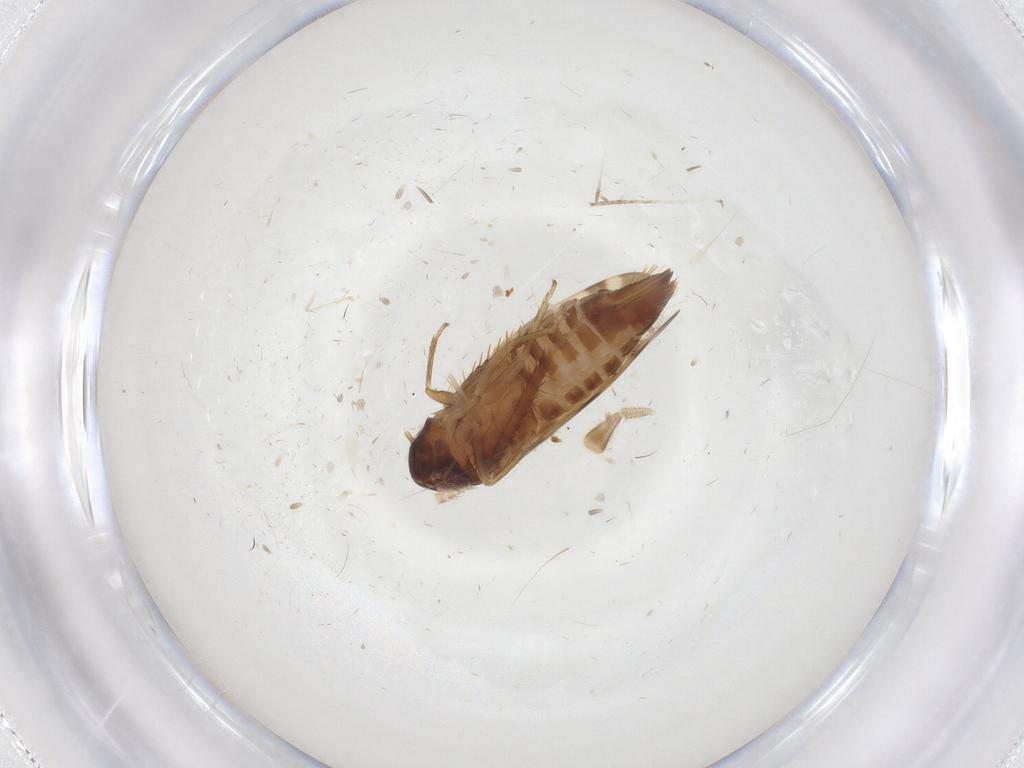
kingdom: Animalia
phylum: Arthropoda
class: Insecta
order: Hemiptera
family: Cicadellidae
